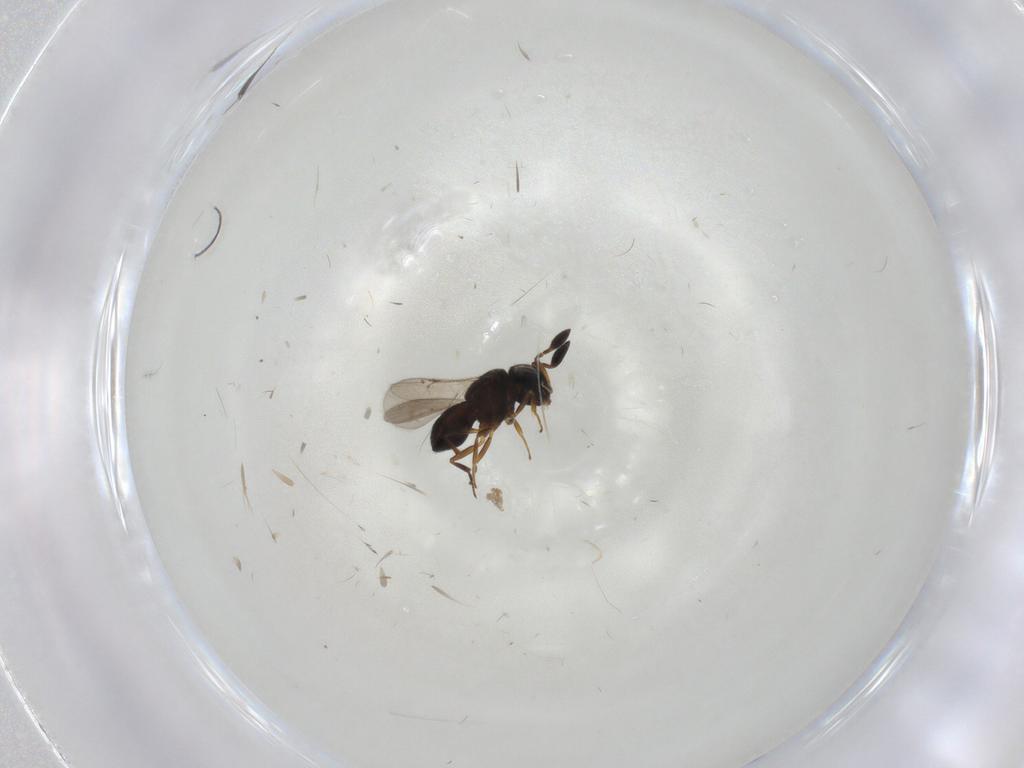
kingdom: Animalia
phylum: Arthropoda
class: Insecta
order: Hymenoptera
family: Scelionidae
